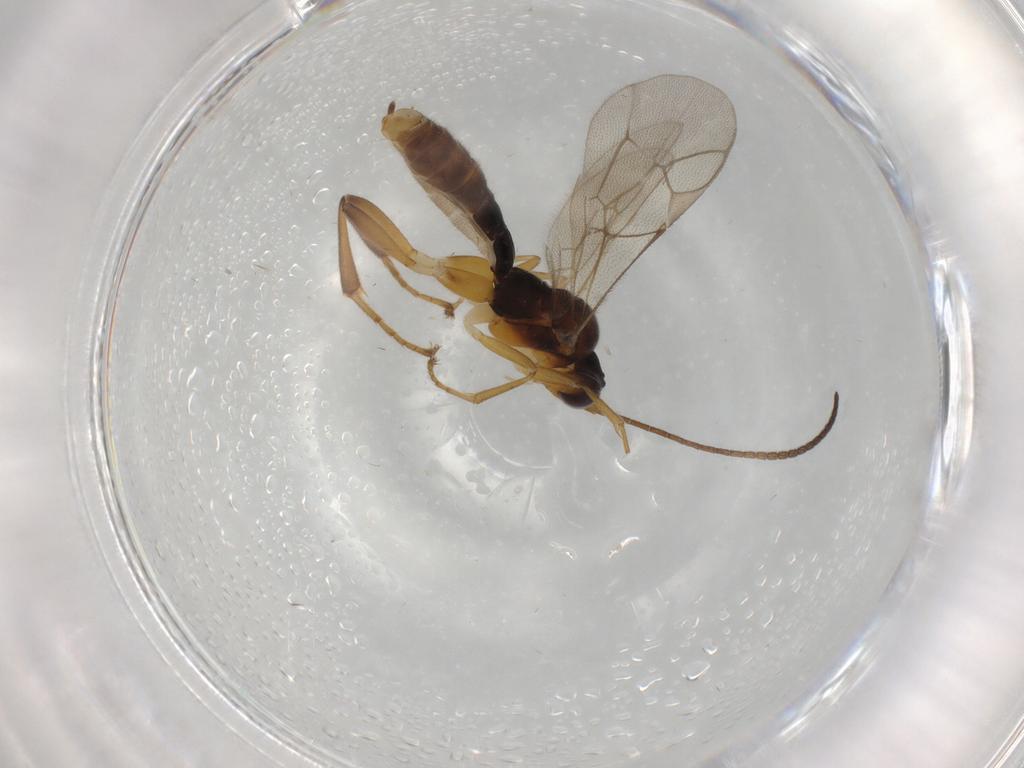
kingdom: Animalia
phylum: Arthropoda
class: Insecta
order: Hymenoptera
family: Ichneumonidae
